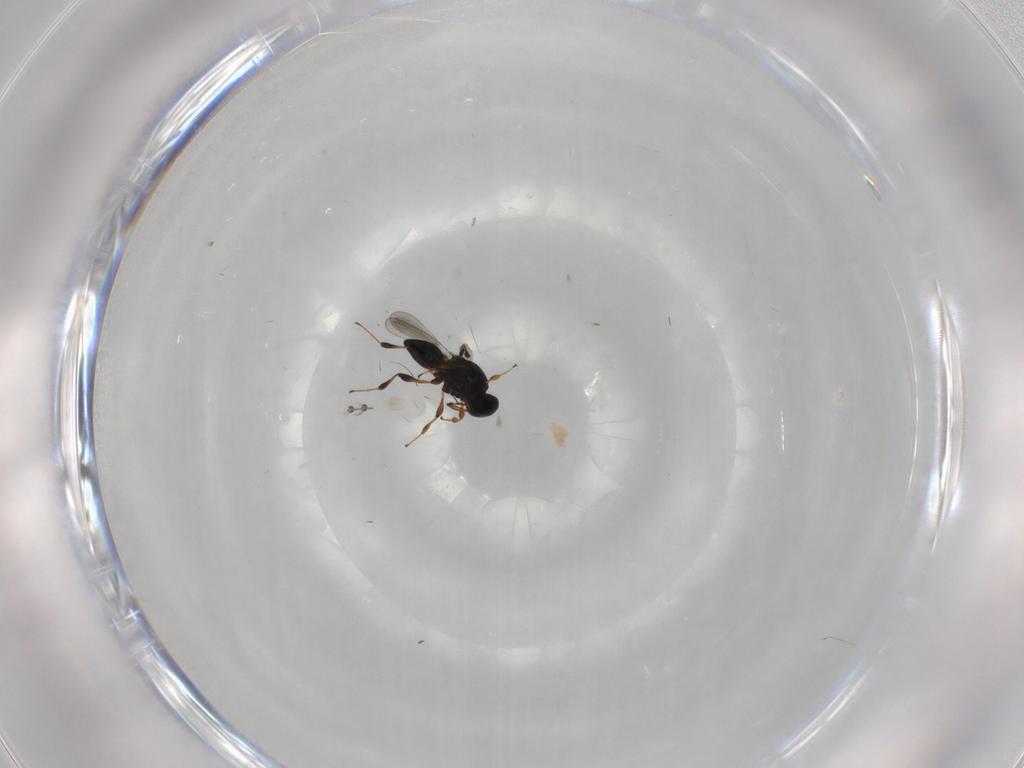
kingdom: Animalia
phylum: Arthropoda
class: Insecta
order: Hymenoptera
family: Platygastridae
